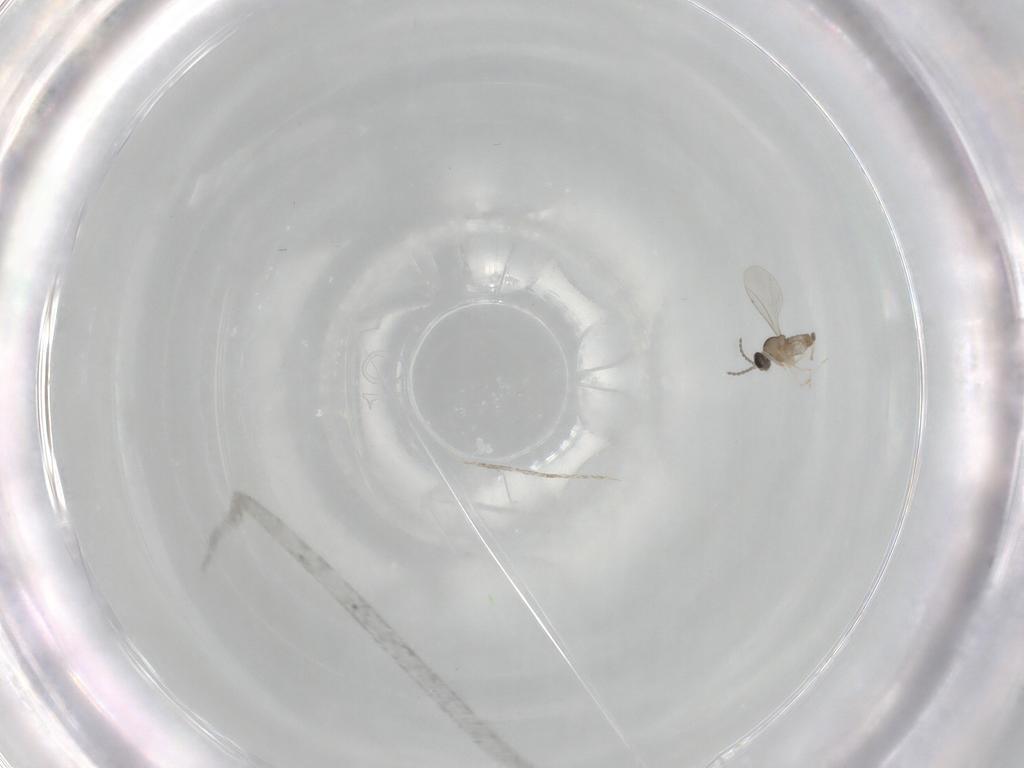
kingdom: Animalia
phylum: Arthropoda
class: Insecta
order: Diptera
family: Cecidomyiidae
